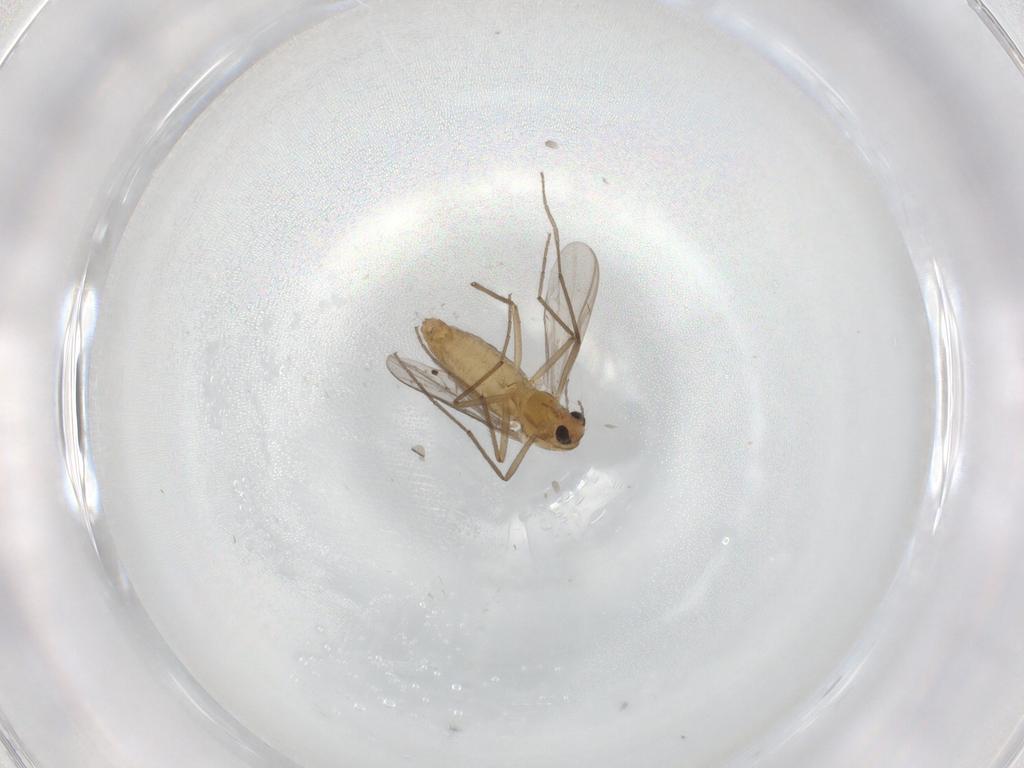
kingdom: Animalia
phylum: Arthropoda
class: Insecta
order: Diptera
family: Chironomidae
